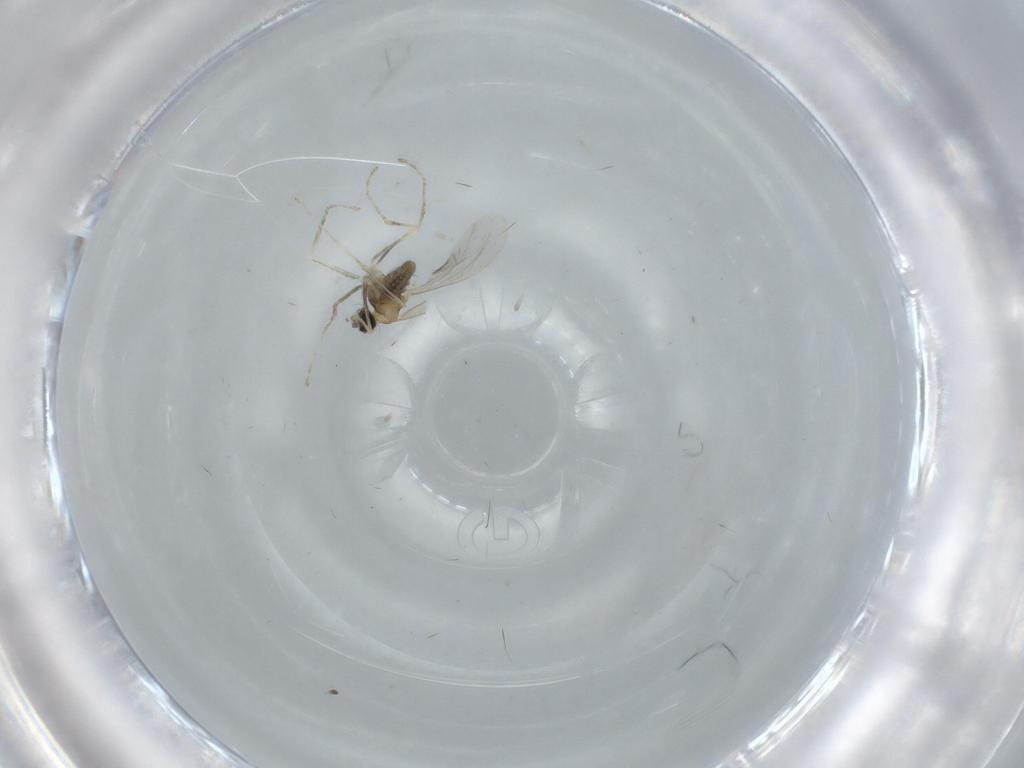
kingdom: Animalia
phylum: Arthropoda
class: Insecta
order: Diptera
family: Cecidomyiidae
